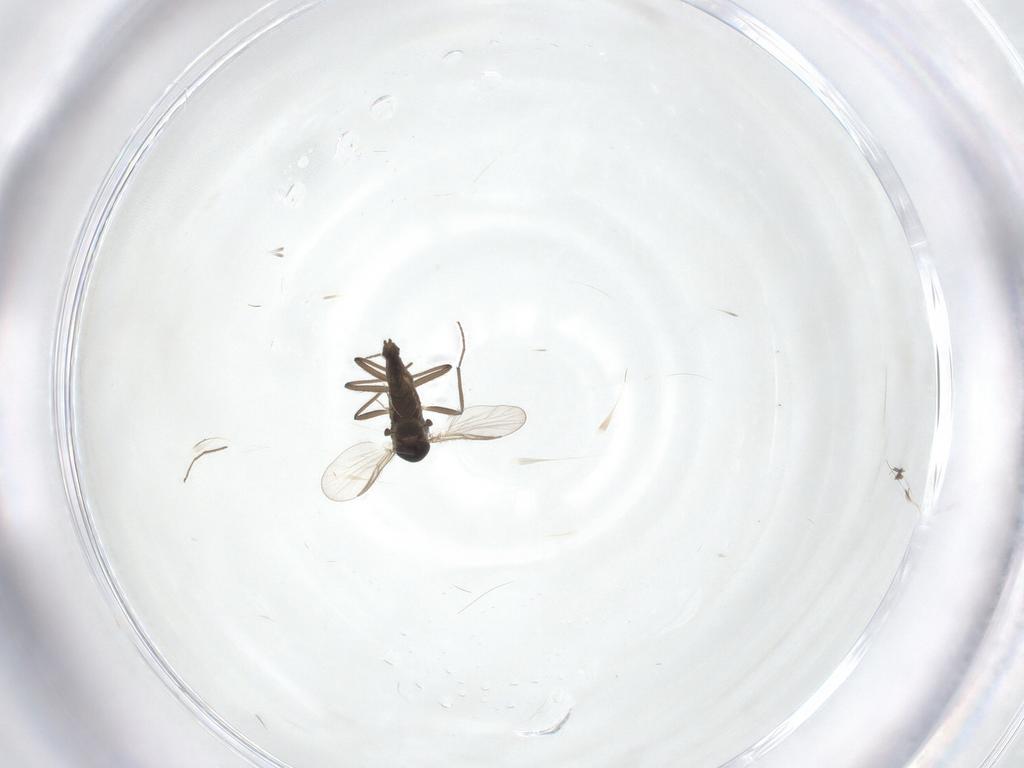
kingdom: Animalia
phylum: Arthropoda
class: Insecta
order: Diptera
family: Chironomidae
